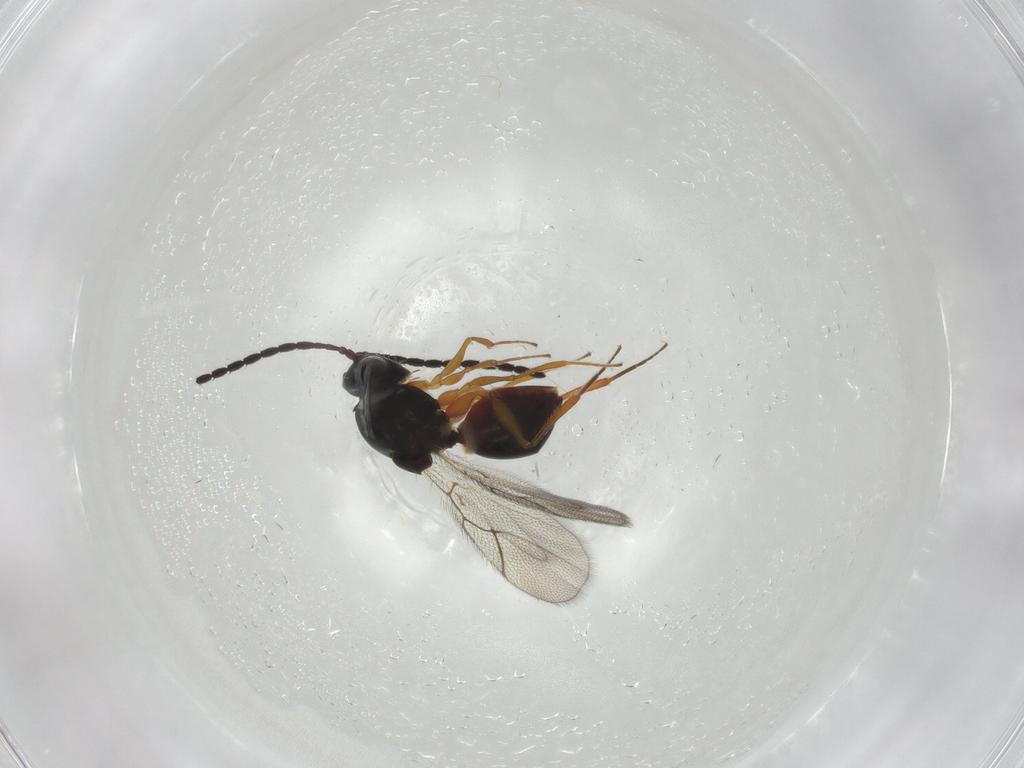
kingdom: Animalia
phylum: Arthropoda
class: Insecta
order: Hymenoptera
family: Figitidae
